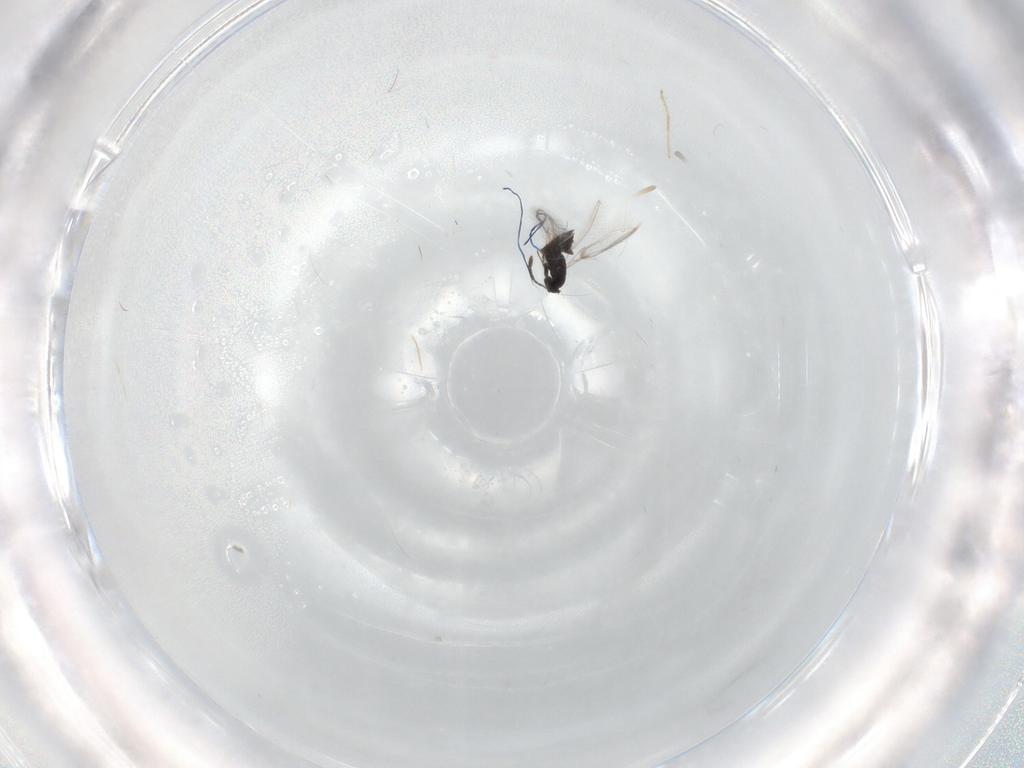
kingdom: Animalia
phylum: Arthropoda
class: Insecta
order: Hymenoptera
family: Mymaridae
